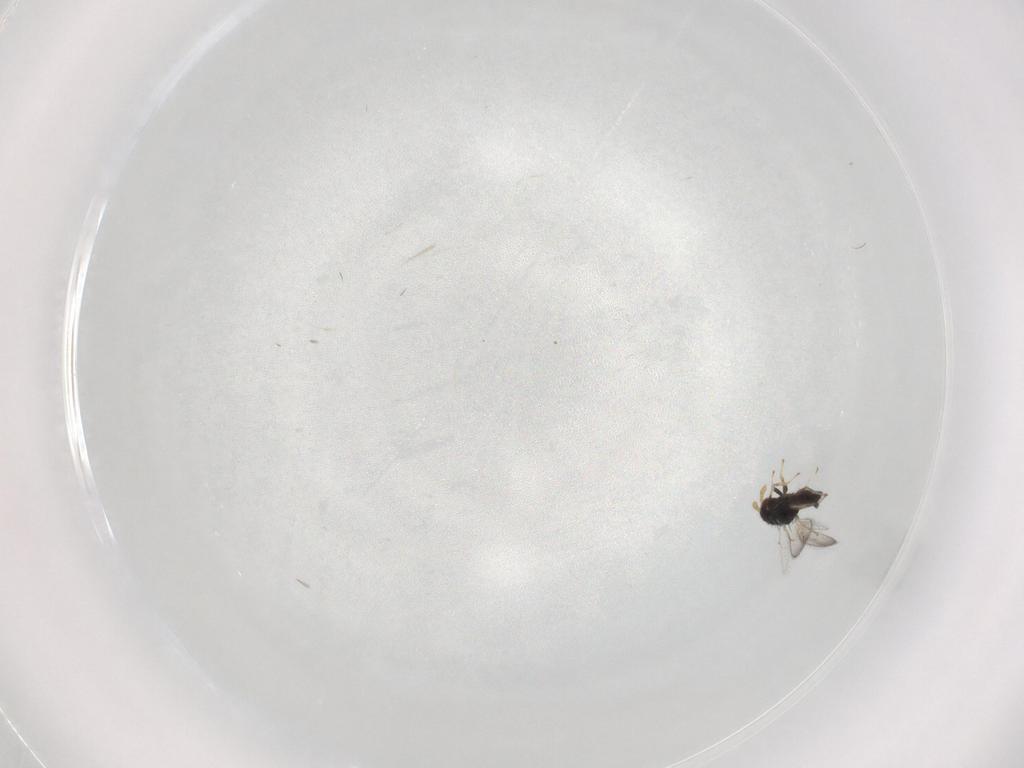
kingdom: Animalia
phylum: Arthropoda
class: Insecta
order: Hymenoptera
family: Eulophidae
